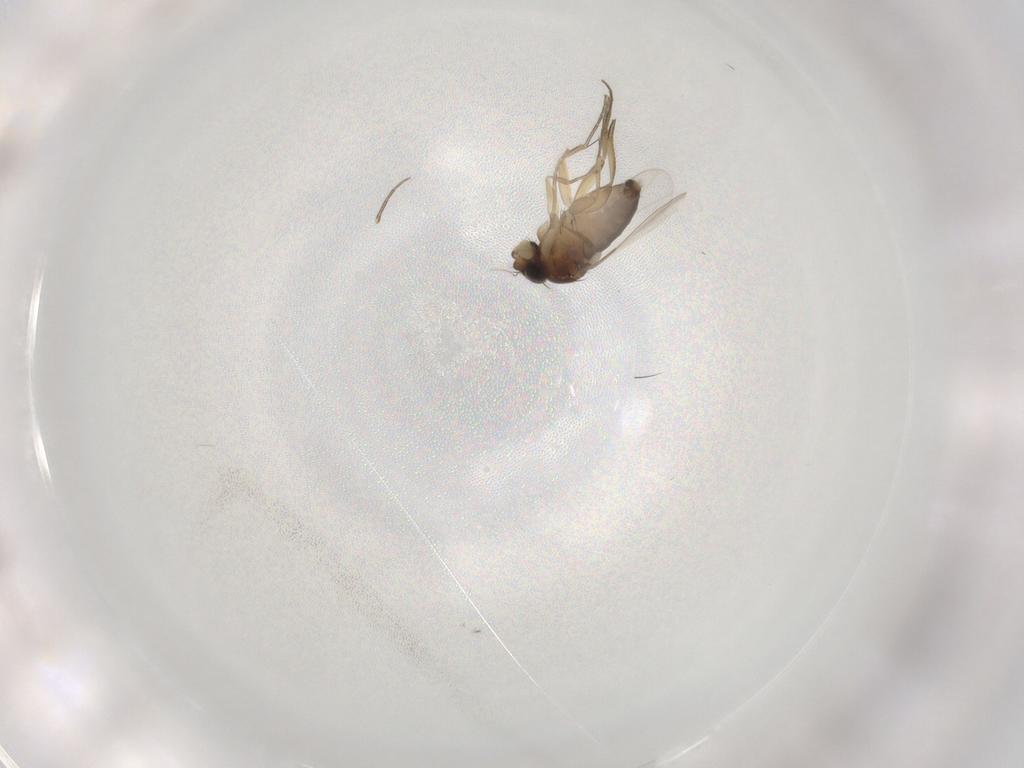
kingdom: Animalia
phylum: Arthropoda
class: Insecta
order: Diptera
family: Phoridae
